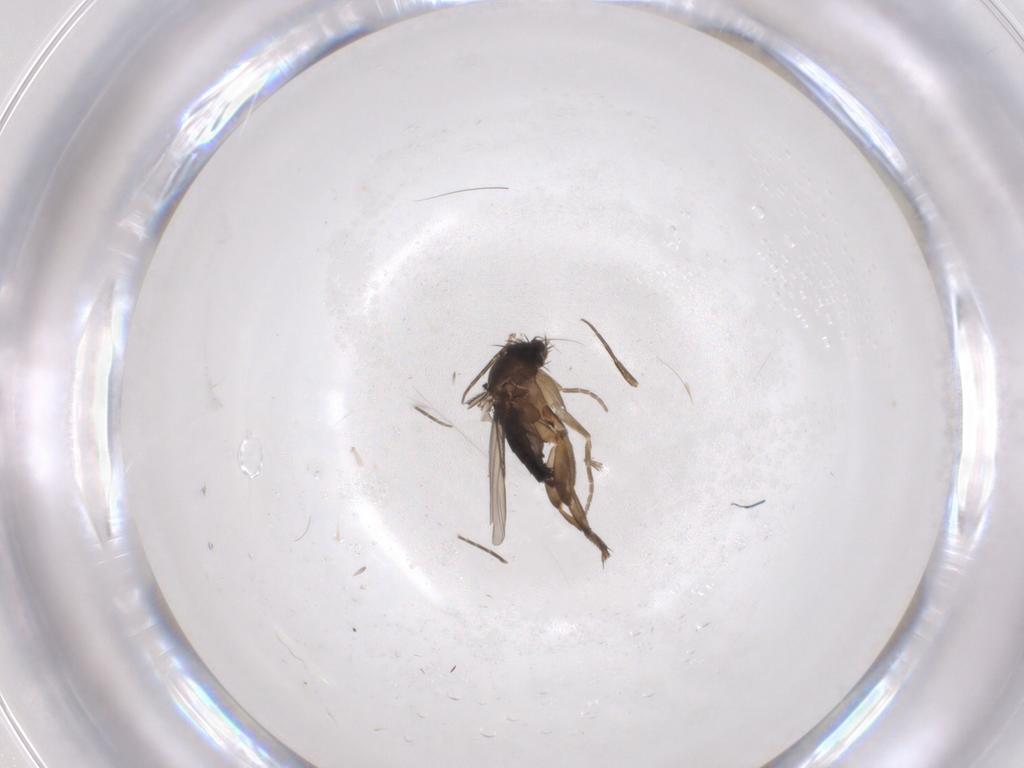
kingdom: Animalia
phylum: Arthropoda
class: Insecta
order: Diptera
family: Phoridae
